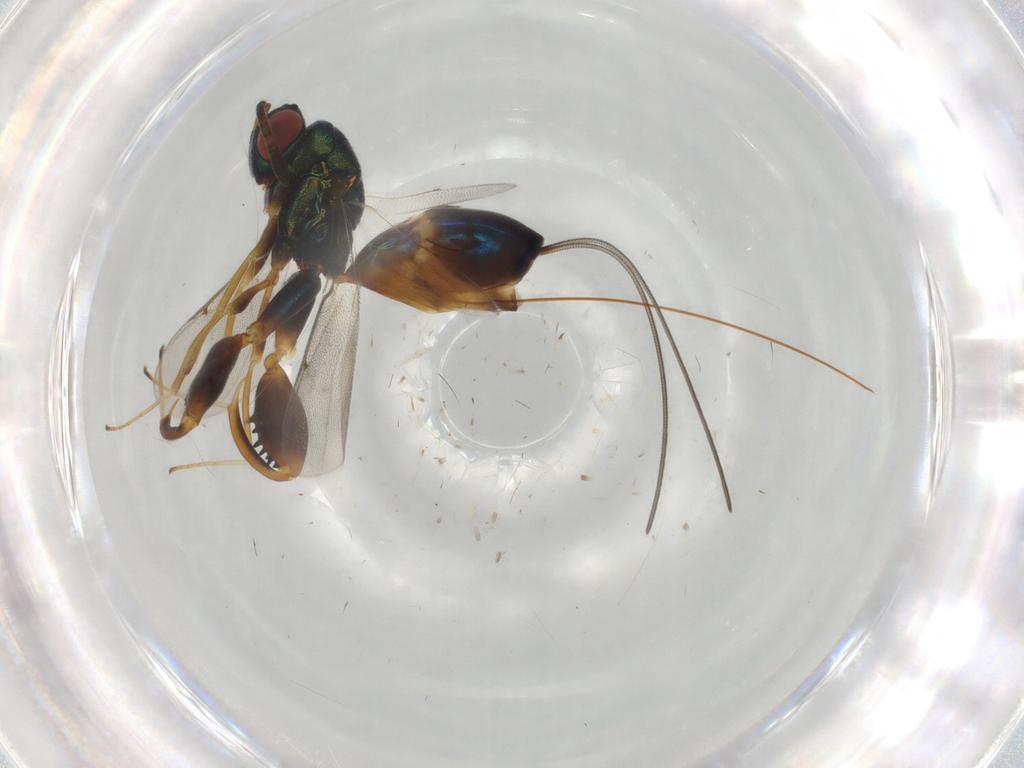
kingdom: Animalia
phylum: Arthropoda
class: Insecta
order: Hymenoptera
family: Torymidae
